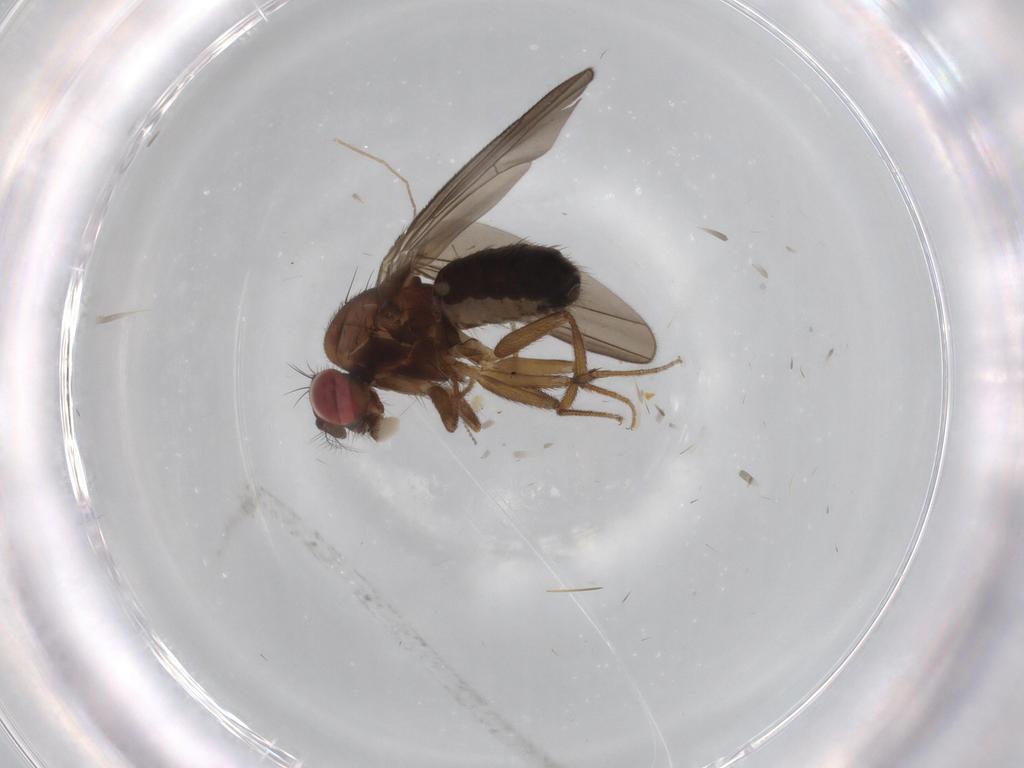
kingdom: Animalia
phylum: Arthropoda
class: Insecta
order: Diptera
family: Drosophilidae
